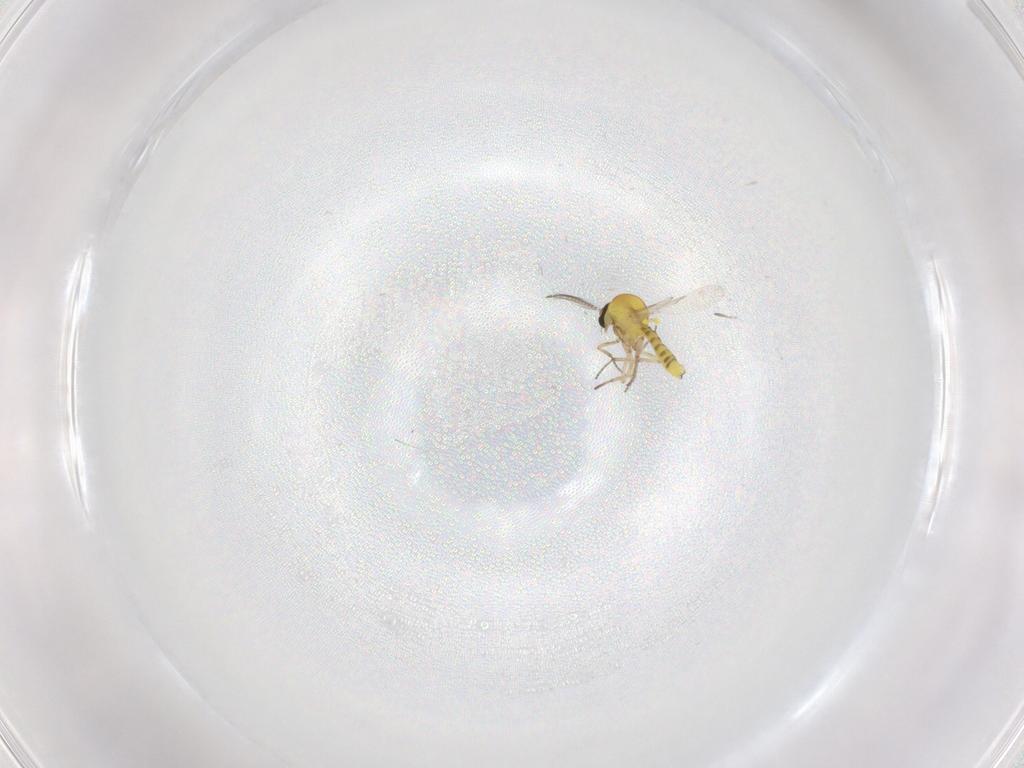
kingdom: Animalia
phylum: Arthropoda
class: Insecta
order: Diptera
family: Ceratopogonidae
